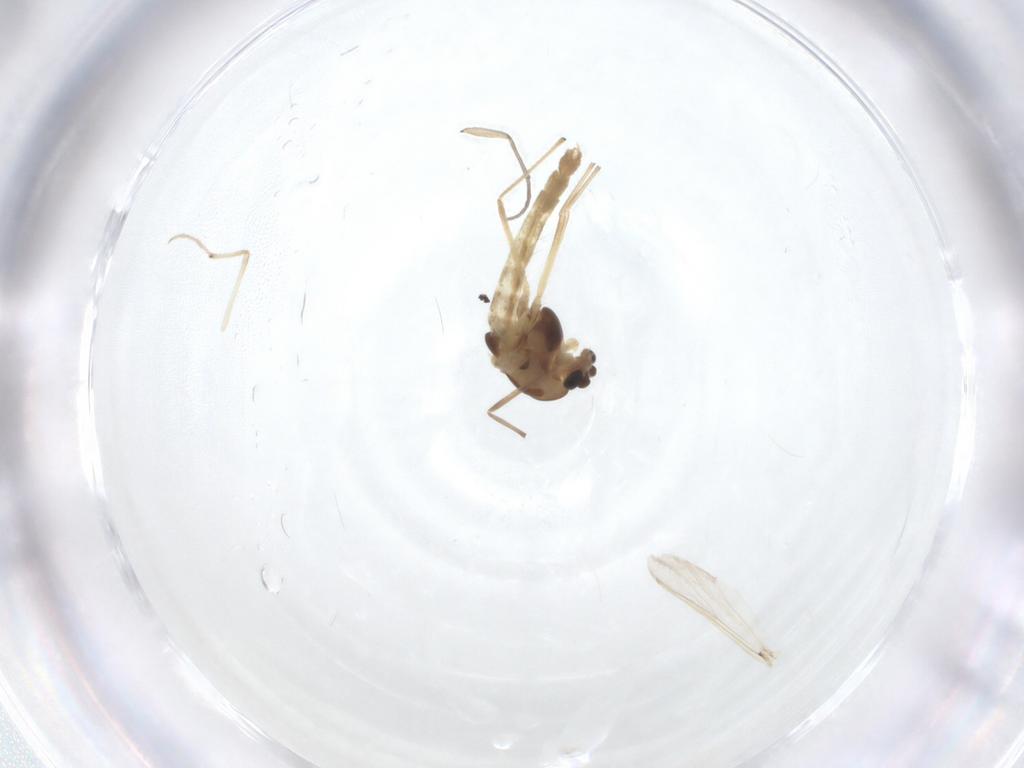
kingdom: Animalia
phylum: Arthropoda
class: Insecta
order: Diptera
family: Chironomidae
